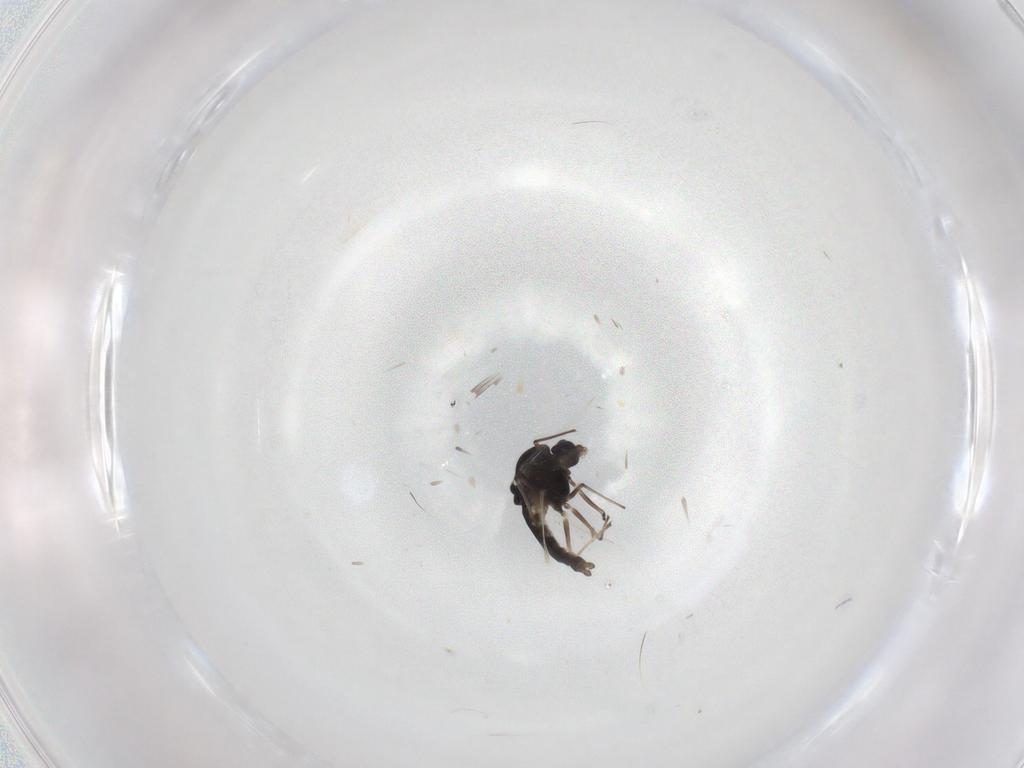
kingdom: Animalia
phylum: Arthropoda
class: Insecta
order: Diptera
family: Chironomidae
